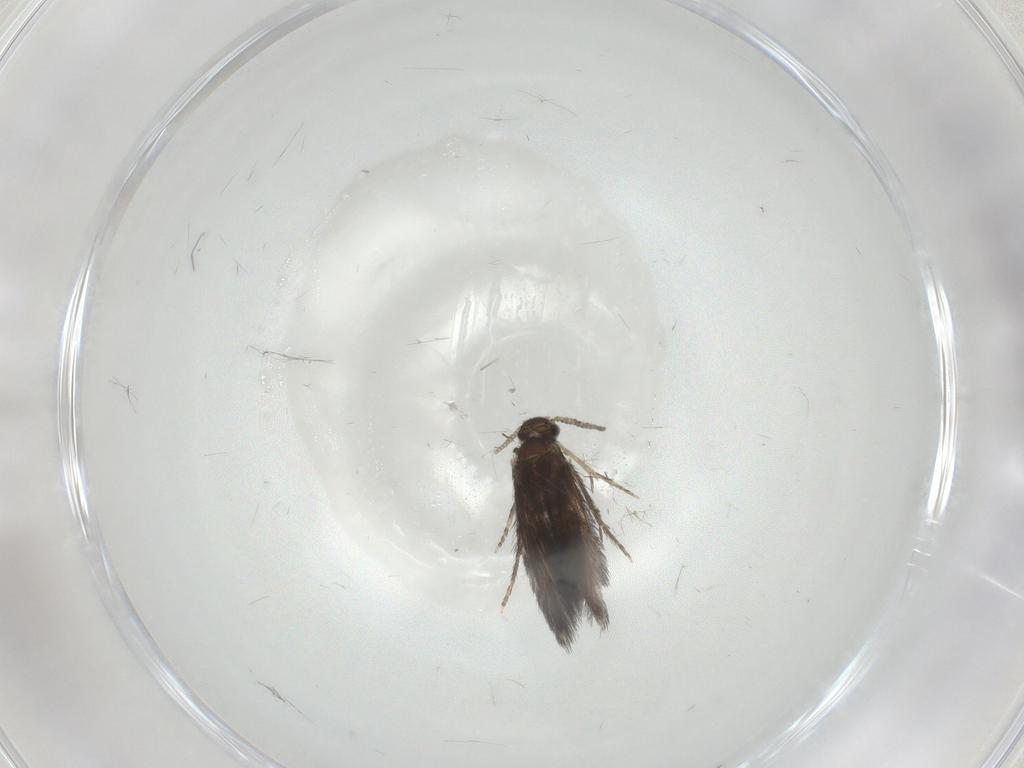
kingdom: Animalia
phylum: Arthropoda
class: Insecta
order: Trichoptera
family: Hydroptilidae
